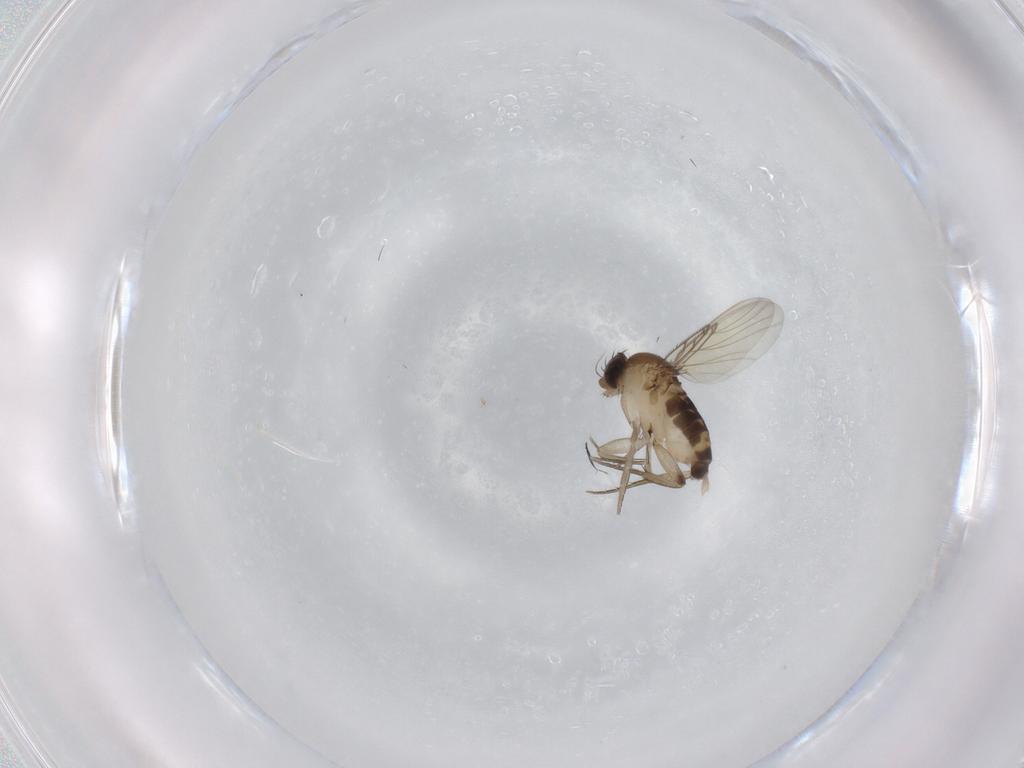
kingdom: Animalia
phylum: Arthropoda
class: Insecta
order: Diptera
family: Phoridae
